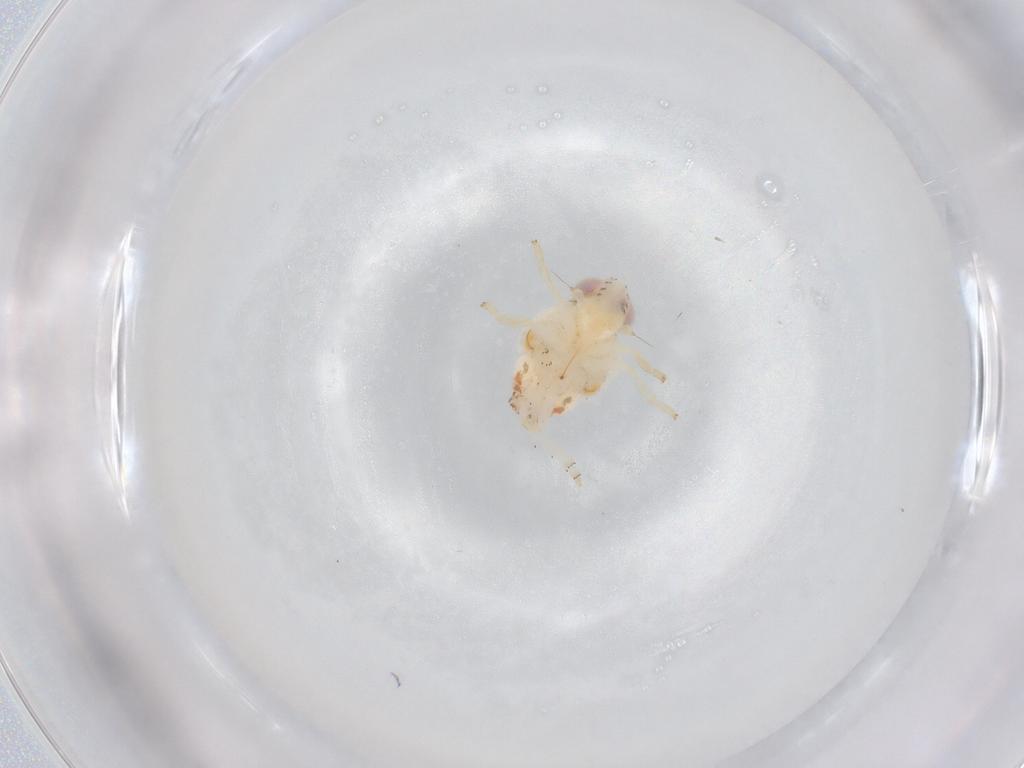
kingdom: Animalia
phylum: Arthropoda
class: Insecta
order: Hemiptera
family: Nogodinidae
